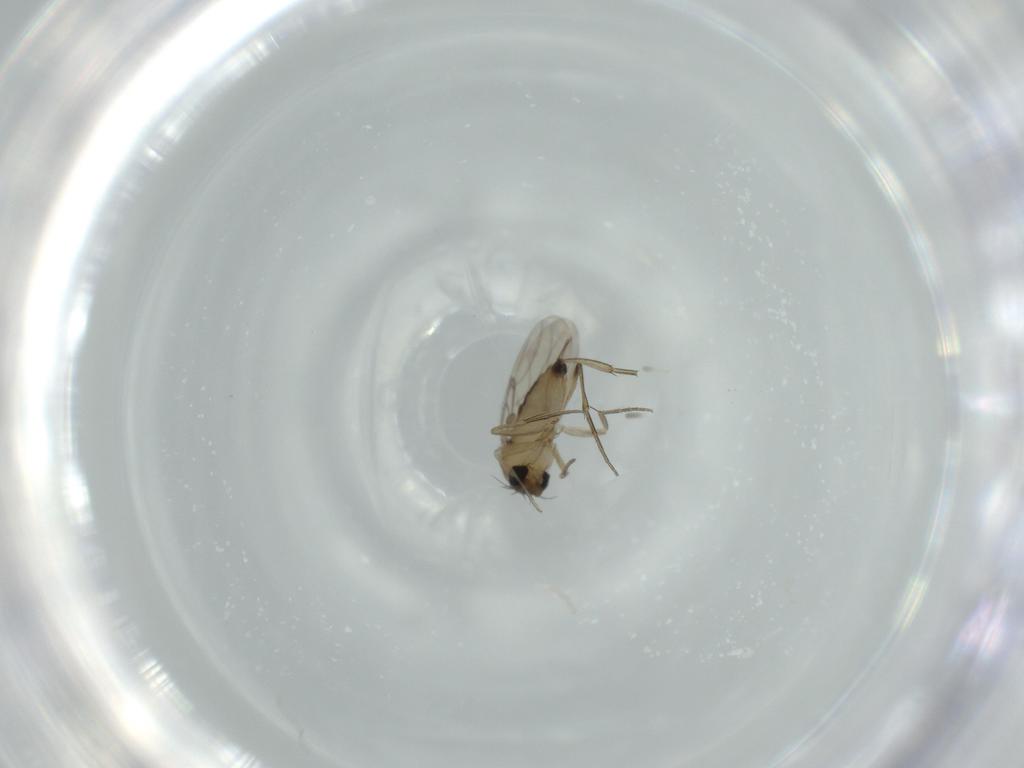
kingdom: Animalia
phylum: Arthropoda
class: Insecta
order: Diptera
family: Phoridae
